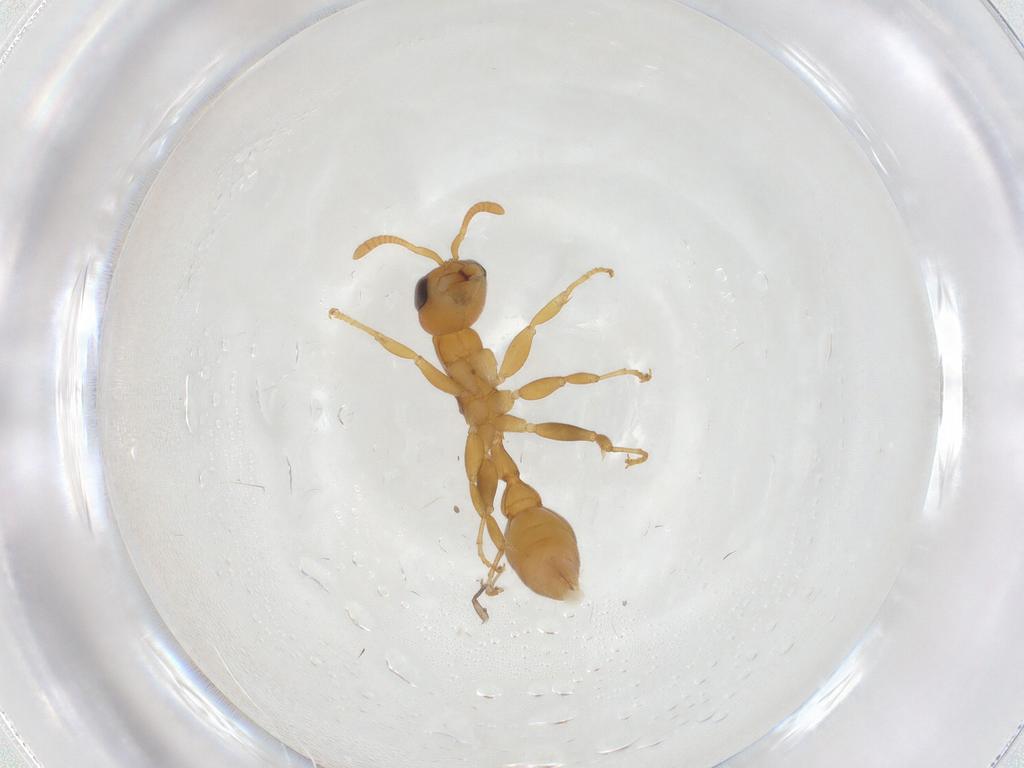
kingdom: Animalia
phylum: Arthropoda
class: Insecta
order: Hymenoptera
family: Formicidae
